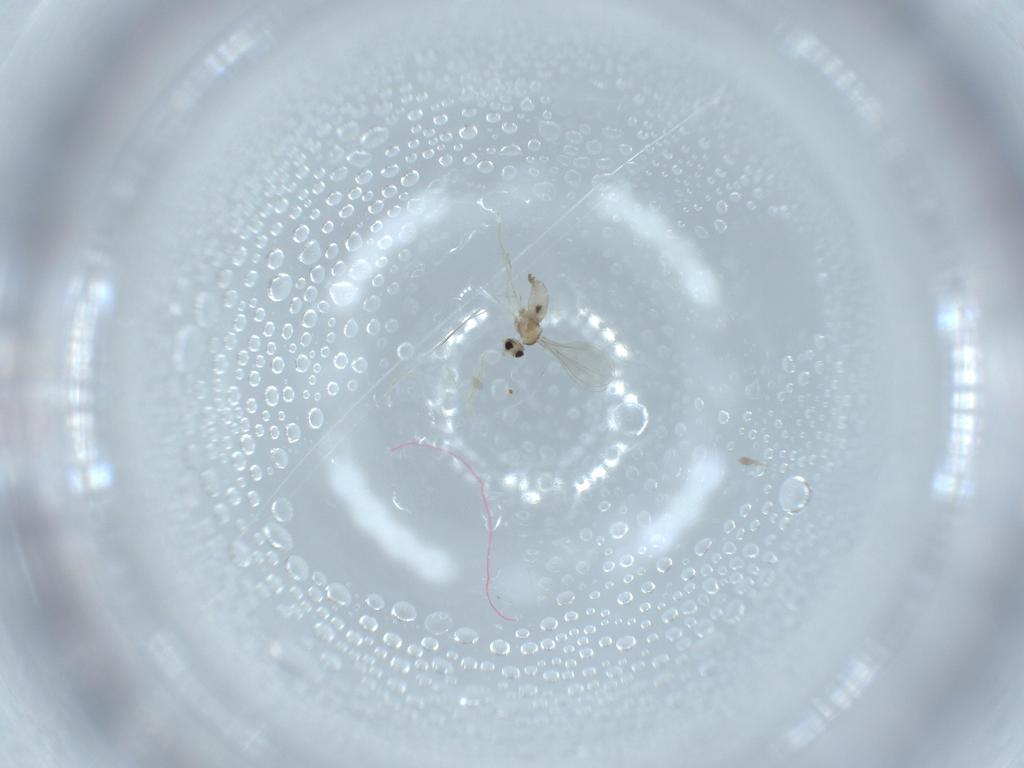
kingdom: Animalia
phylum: Arthropoda
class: Insecta
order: Diptera
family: Cecidomyiidae
